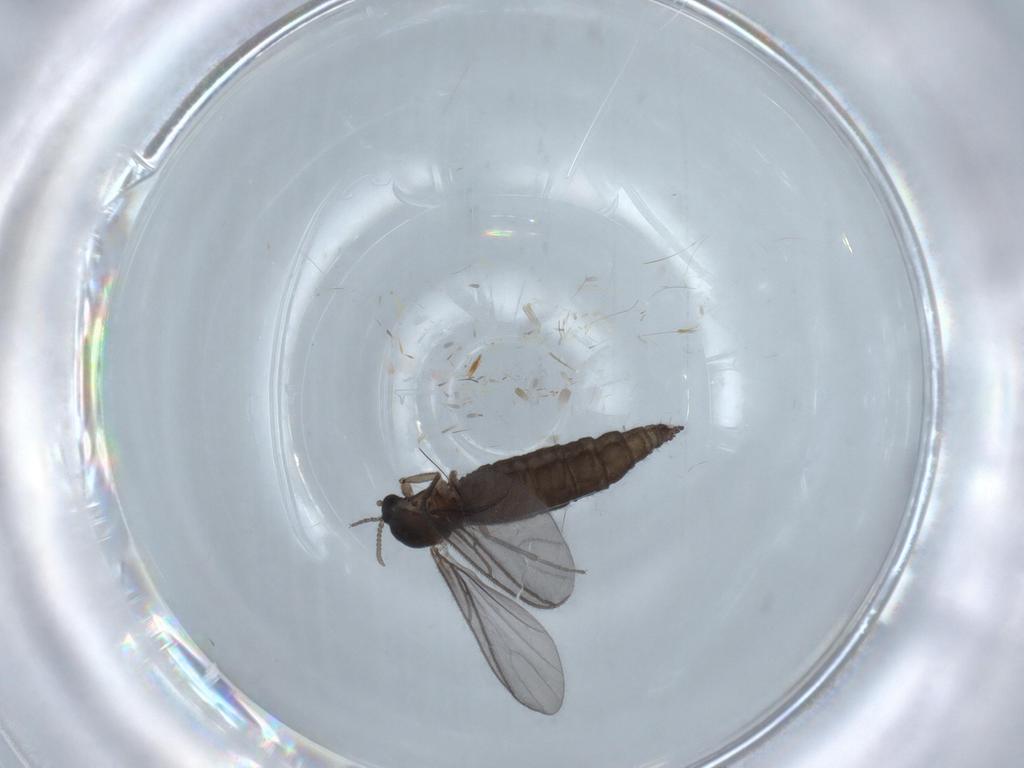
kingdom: Animalia
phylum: Arthropoda
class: Insecta
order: Diptera
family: Sciaridae
